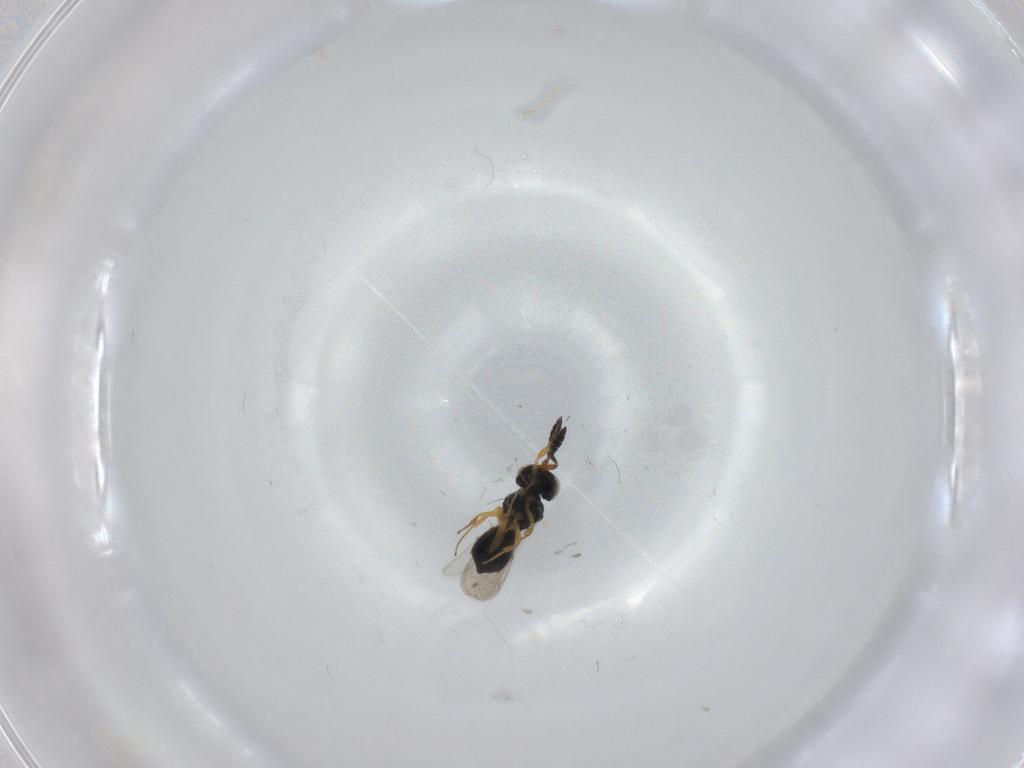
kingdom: Animalia
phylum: Arthropoda
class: Insecta
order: Hymenoptera
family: Scelionidae
